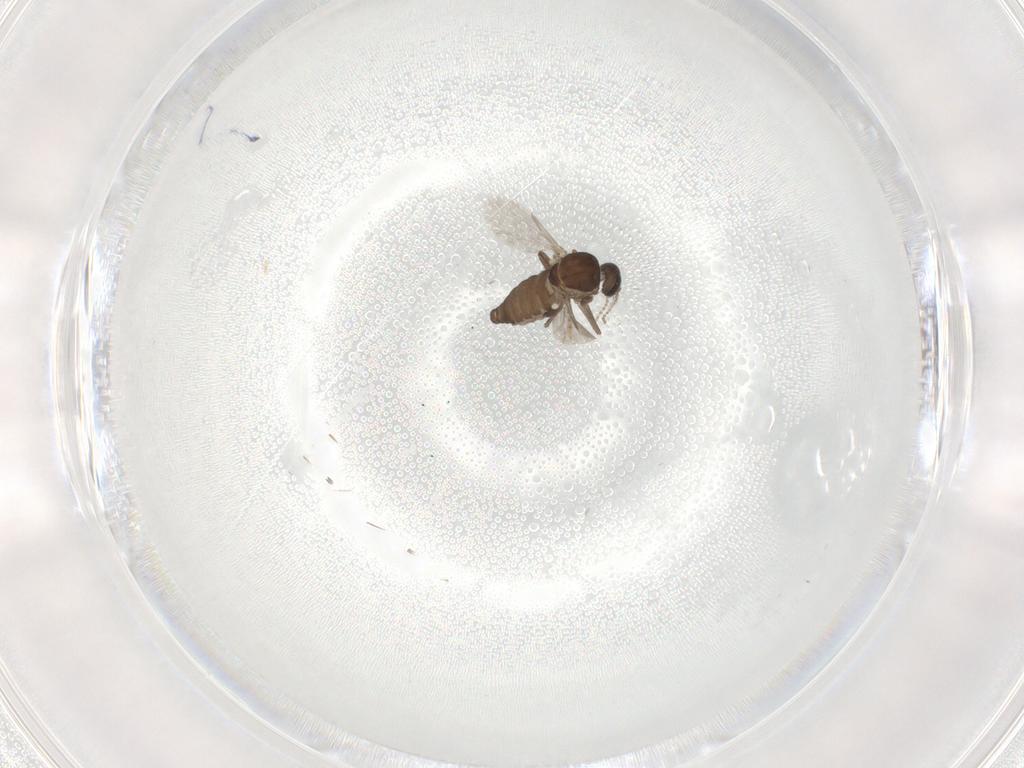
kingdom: Animalia
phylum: Arthropoda
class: Insecta
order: Diptera
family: Ceratopogonidae
